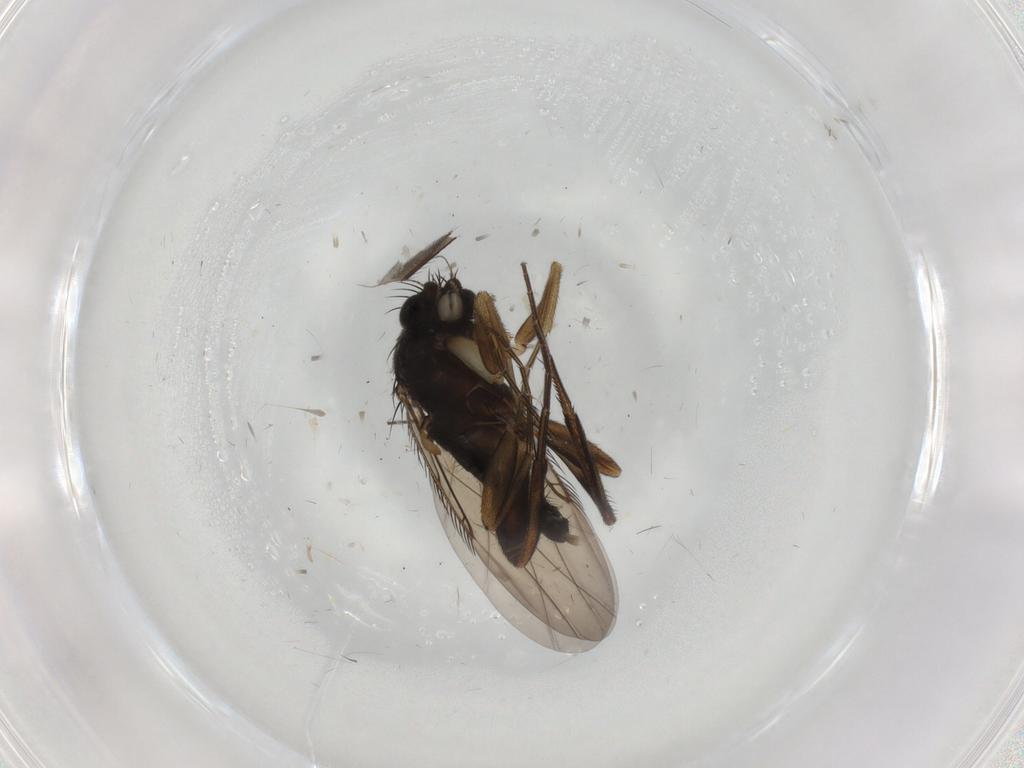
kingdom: Animalia
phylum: Arthropoda
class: Insecta
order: Diptera
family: Phoridae
